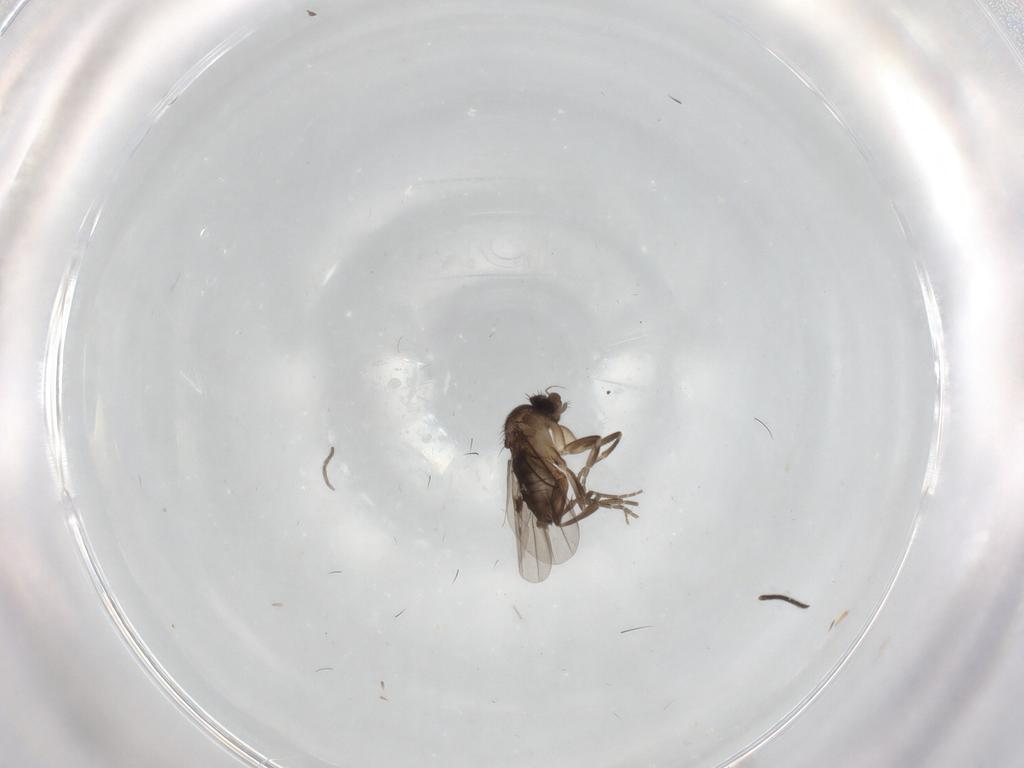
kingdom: Animalia
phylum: Arthropoda
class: Insecta
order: Diptera
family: Sciaridae
